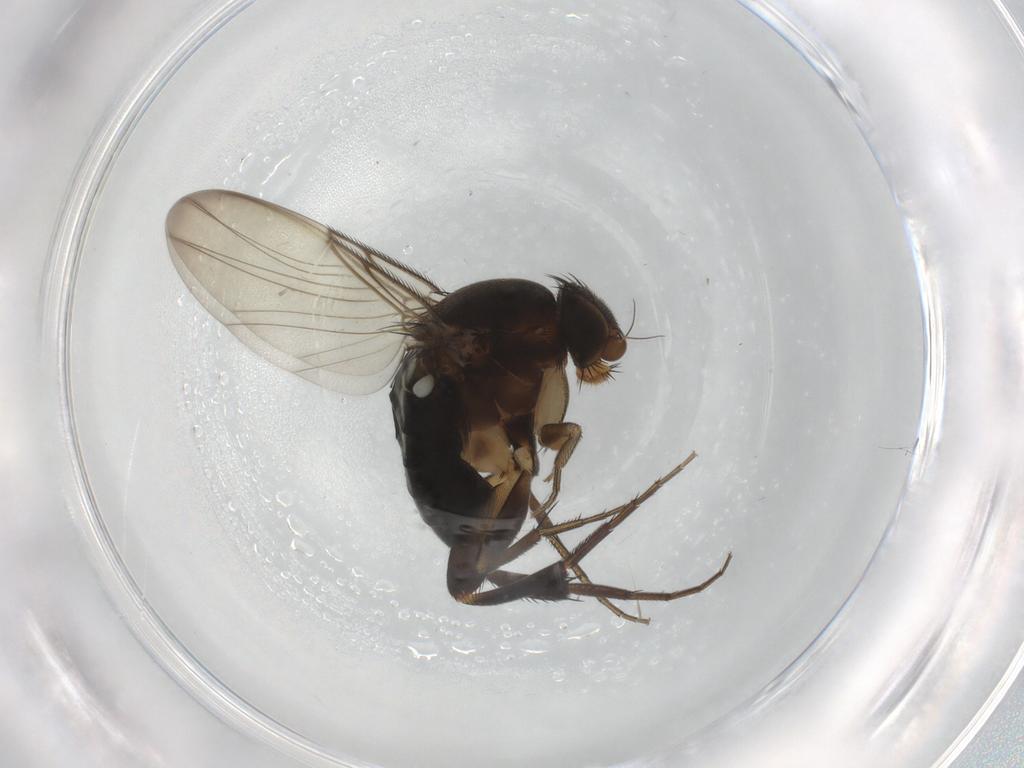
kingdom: Animalia
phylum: Arthropoda
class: Insecta
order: Diptera
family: Phoridae
